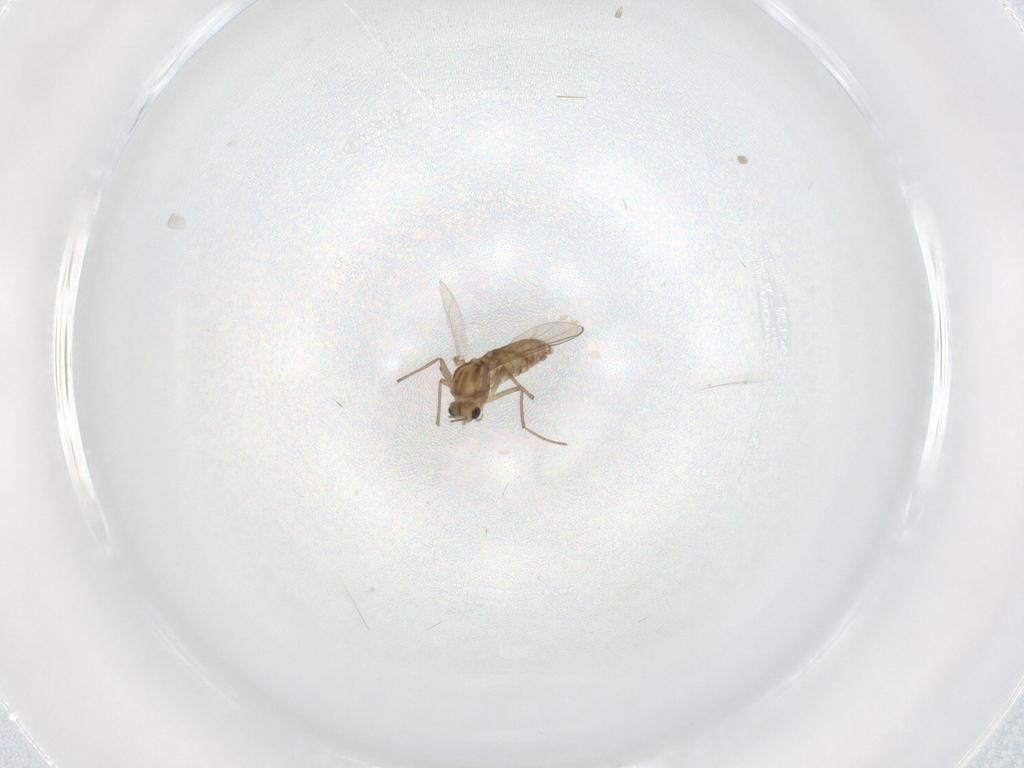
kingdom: Animalia
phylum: Arthropoda
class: Insecta
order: Diptera
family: Chironomidae
